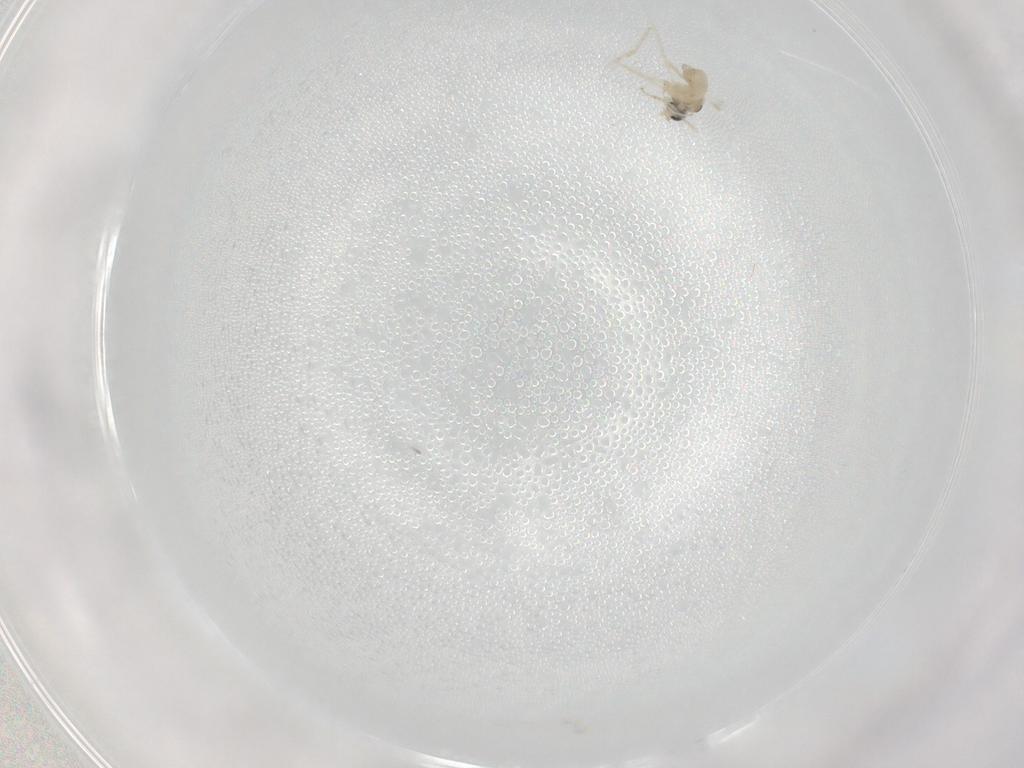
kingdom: Animalia
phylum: Arthropoda
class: Insecta
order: Diptera
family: Cecidomyiidae
